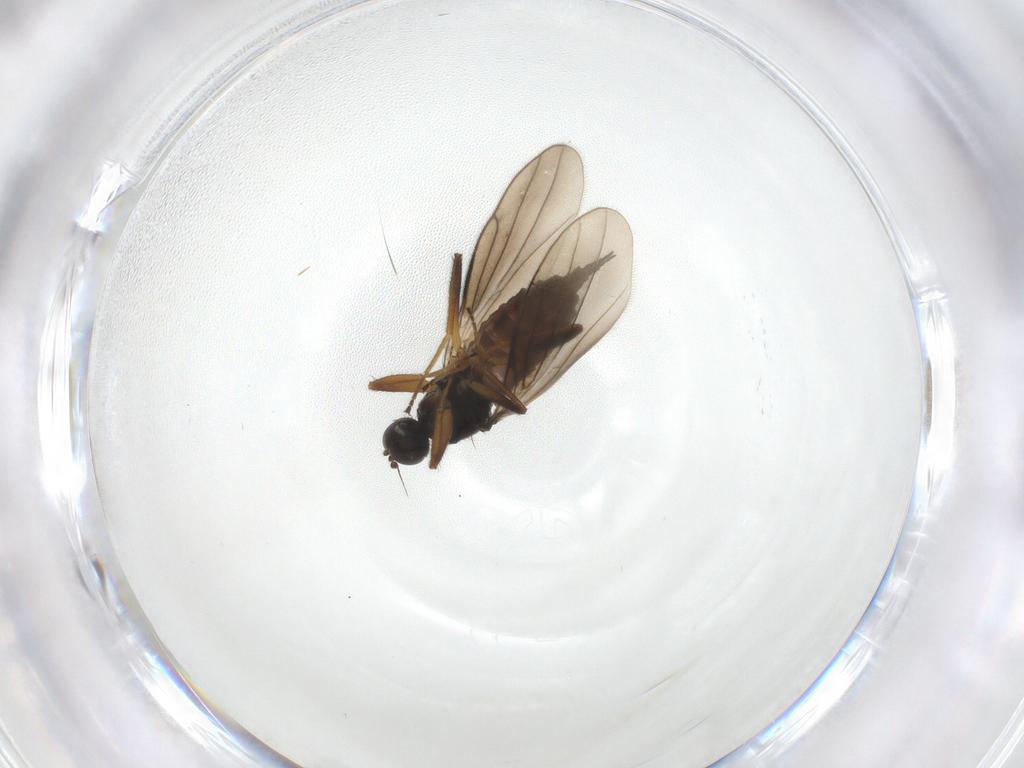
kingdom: Animalia
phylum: Arthropoda
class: Insecta
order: Diptera
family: Hybotidae
